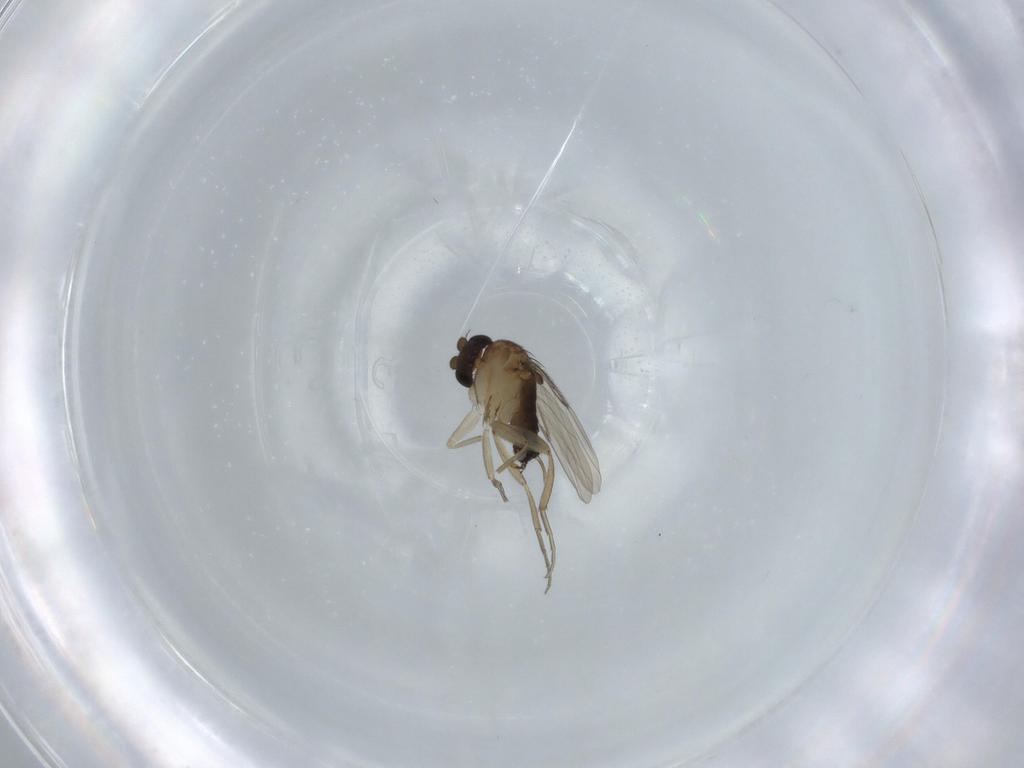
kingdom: Animalia
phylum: Arthropoda
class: Insecta
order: Diptera
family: Phoridae
